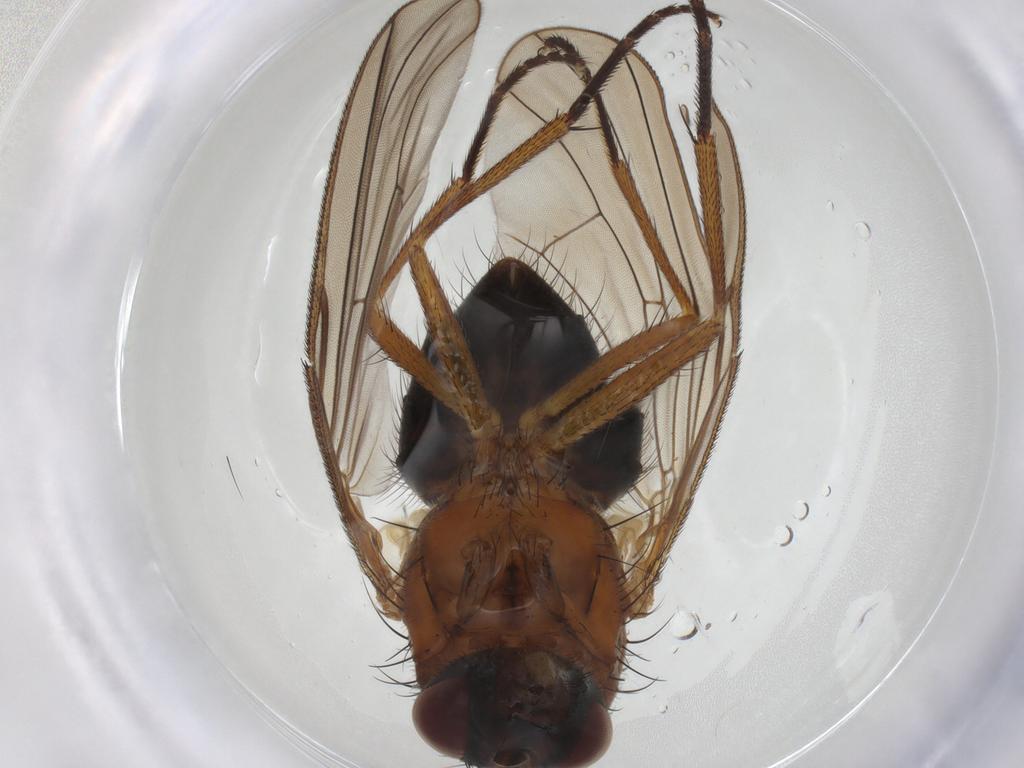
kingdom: Animalia
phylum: Arthropoda
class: Insecta
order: Diptera
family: Muscidae
